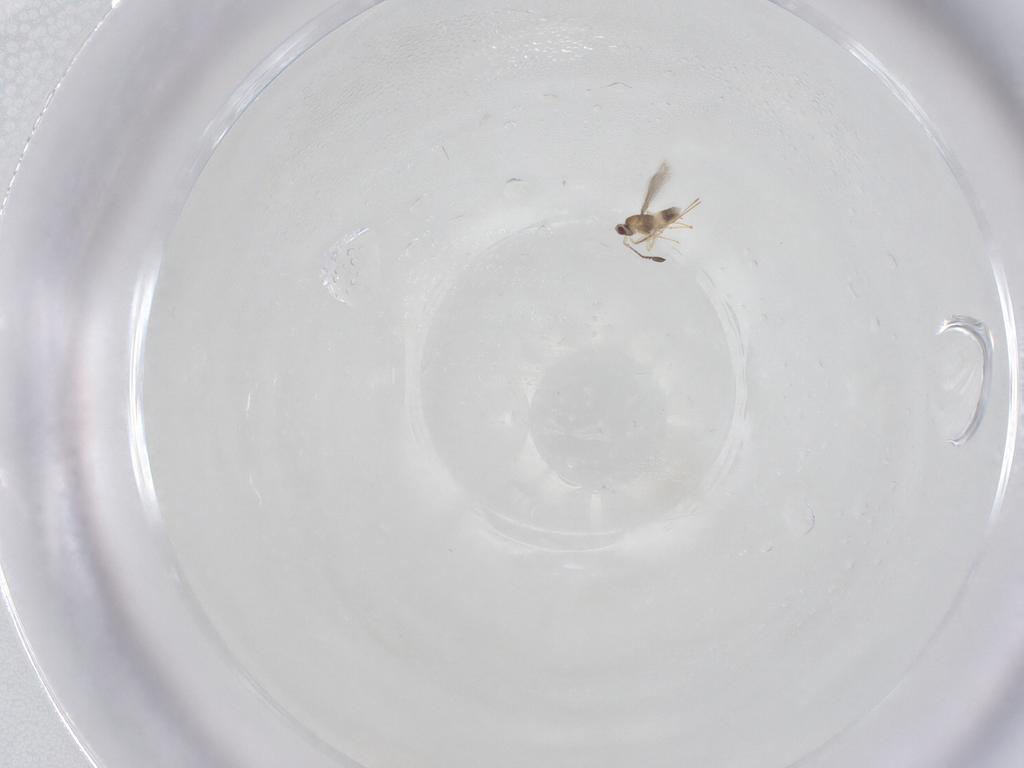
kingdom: Animalia
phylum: Arthropoda
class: Insecta
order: Hymenoptera
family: Mymaridae
